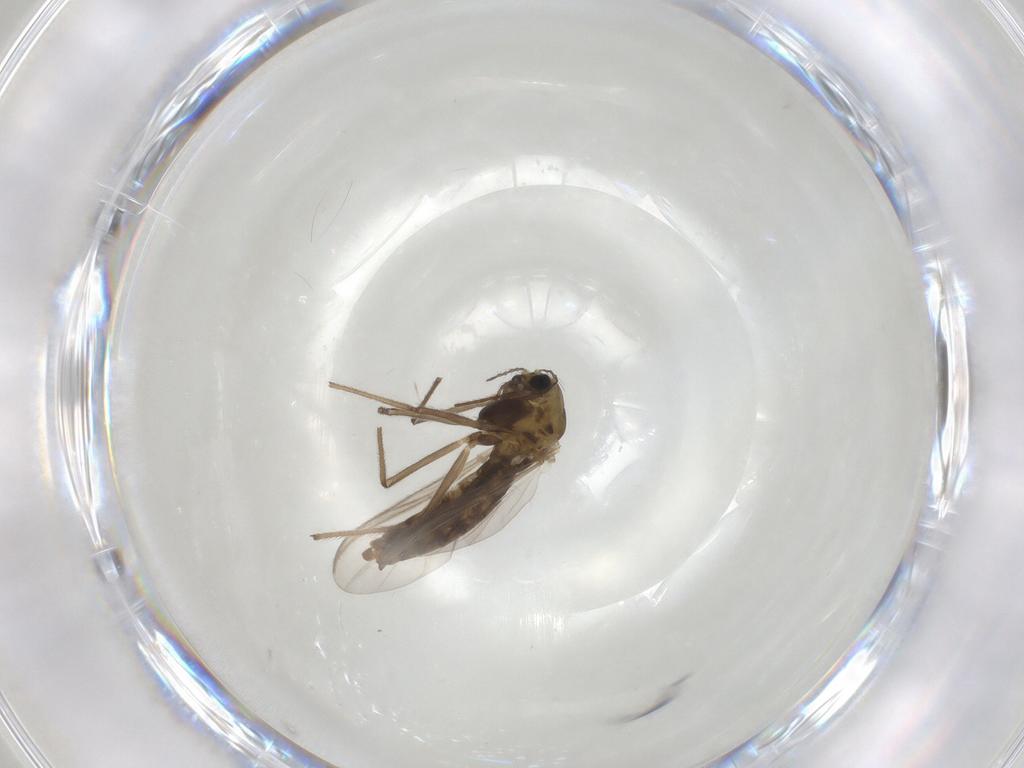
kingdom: Animalia
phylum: Arthropoda
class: Insecta
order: Diptera
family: Chironomidae
